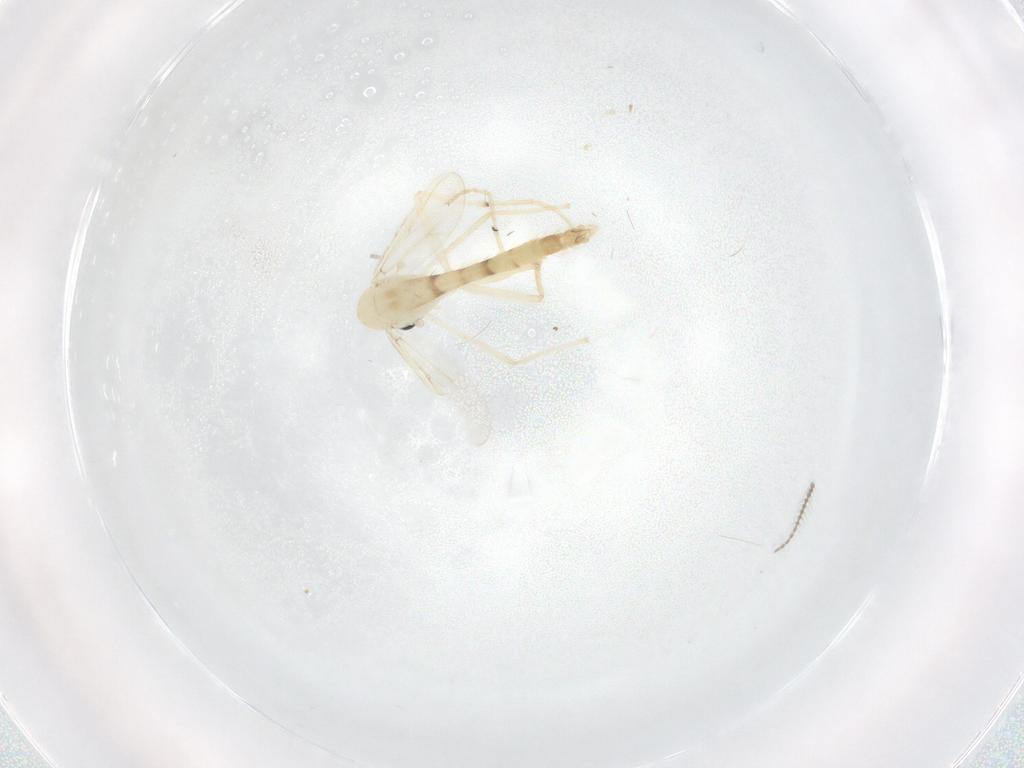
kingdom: Animalia
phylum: Arthropoda
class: Insecta
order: Diptera
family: Chironomidae
